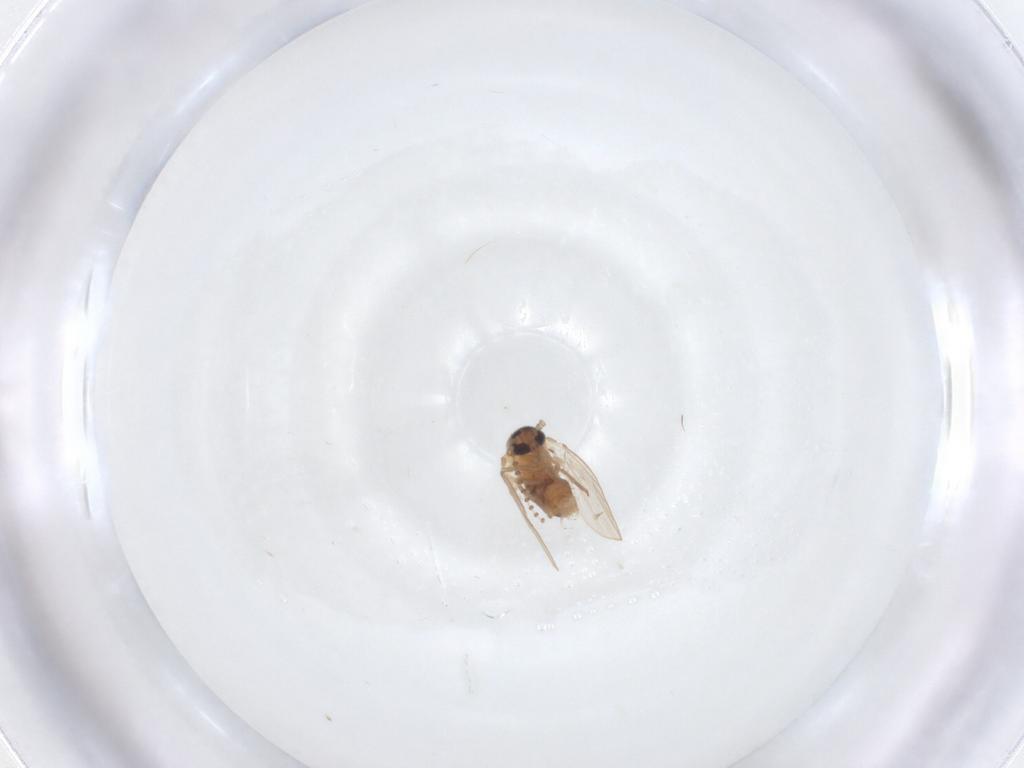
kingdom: Animalia
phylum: Arthropoda
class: Insecta
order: Diptera
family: Psychodidae
